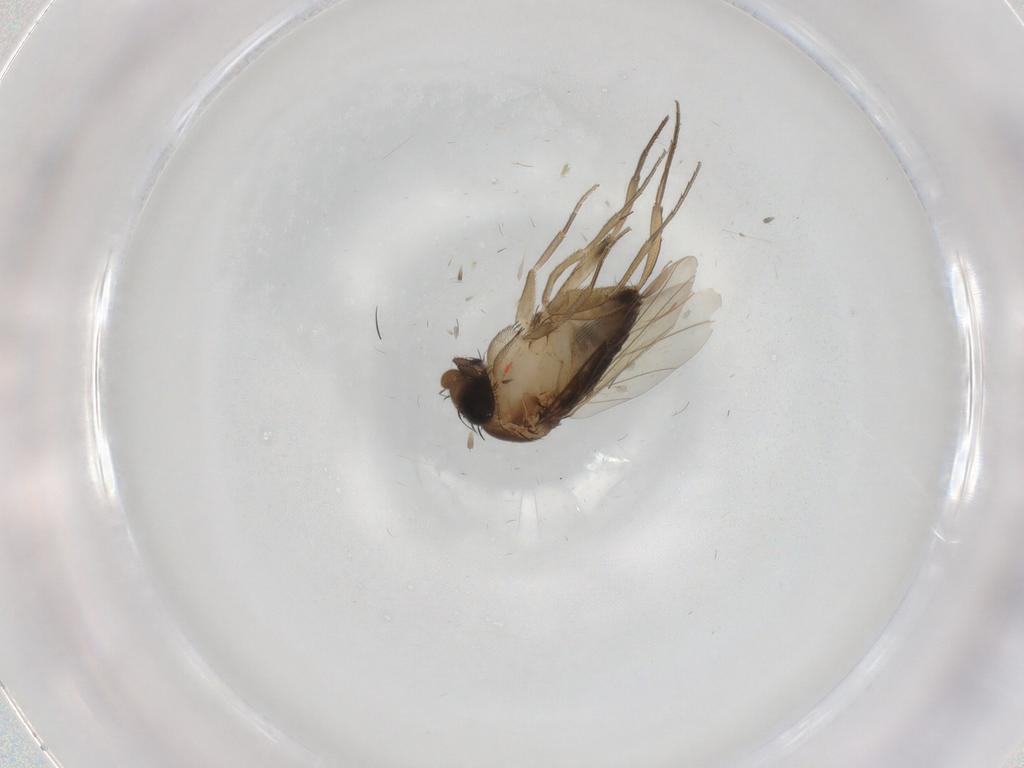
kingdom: Animalia
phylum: Arthropoda
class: Insecta
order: Diptera
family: Phoridae
